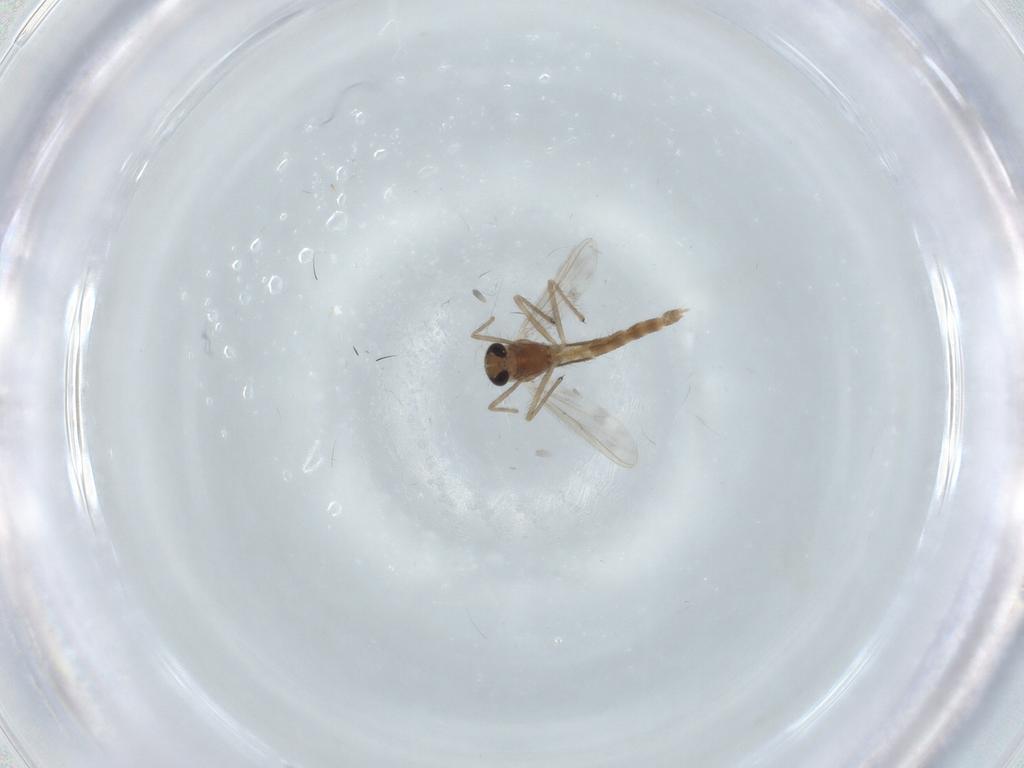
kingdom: Animalia
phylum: Arthropoda
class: Insecta
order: Diptera
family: Chironomidae
